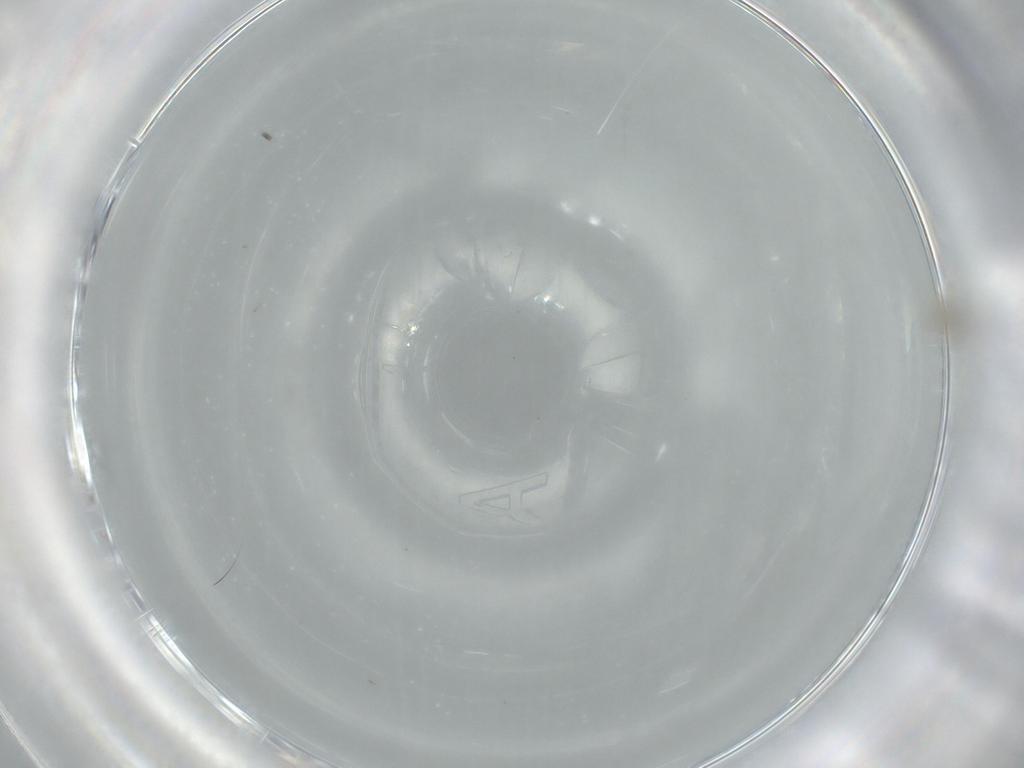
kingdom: Animalia
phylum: Arthropoda
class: Insecta
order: Diptera
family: Cecidomyiidae
